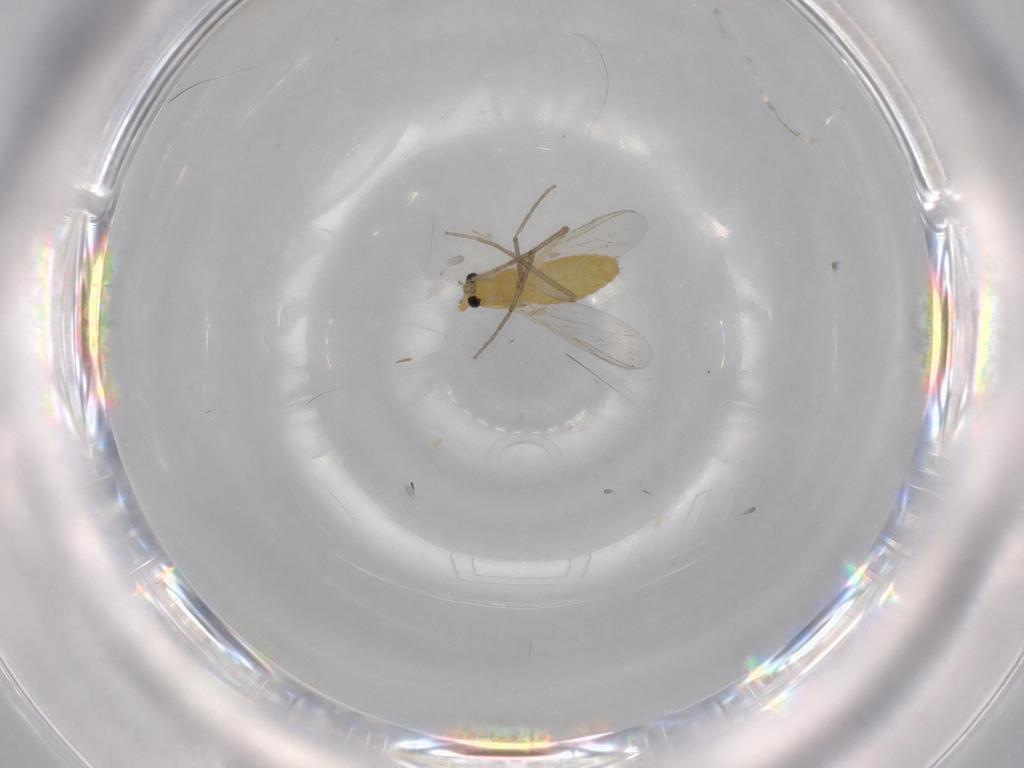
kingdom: Animalia
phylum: Arthropoda
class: Insecta
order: Diptera
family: Chironomidae
